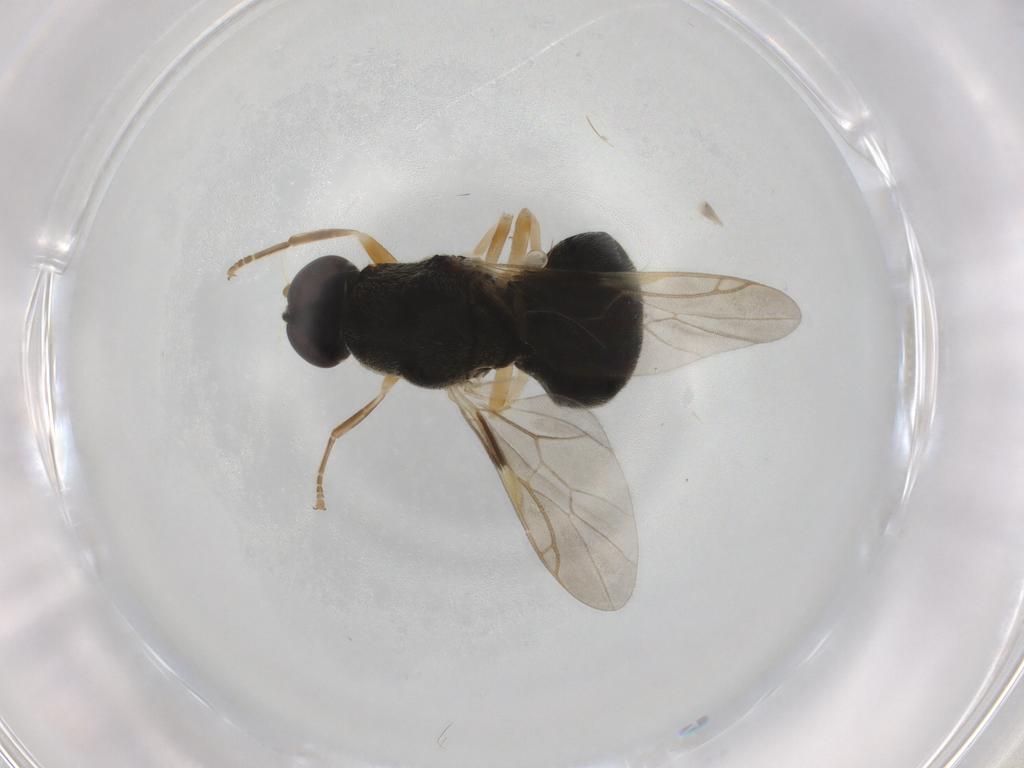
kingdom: Animalia
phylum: Arthropoda
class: Insecta
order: Diptera
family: Stratiomyidae
